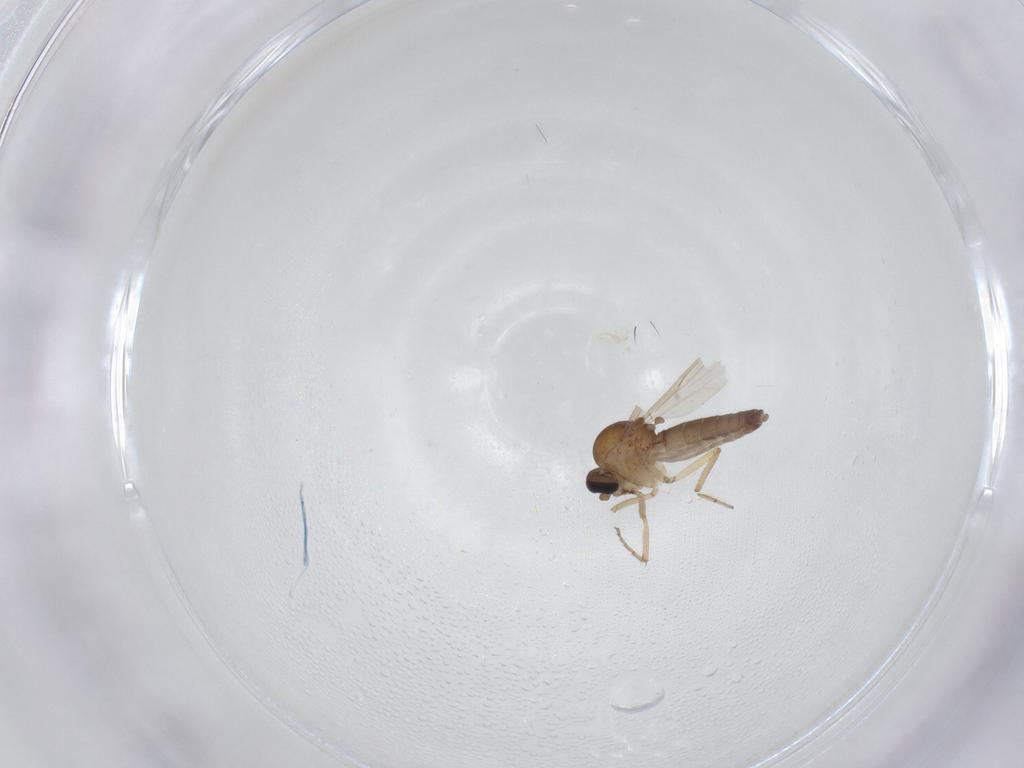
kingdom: Animalia
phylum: Arthropoda
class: Insecta
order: Diptera
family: Ceratopogonidae
